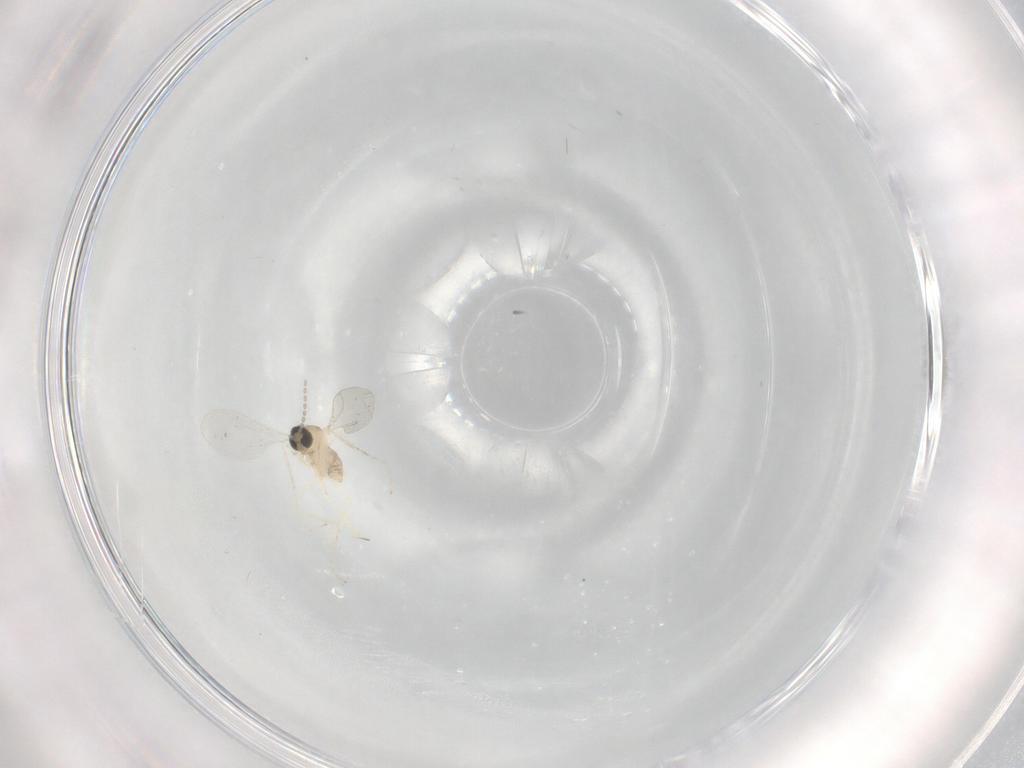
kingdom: Animalia
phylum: Arthropoda
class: Insecta
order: Diptera
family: Cecidomyiidae
